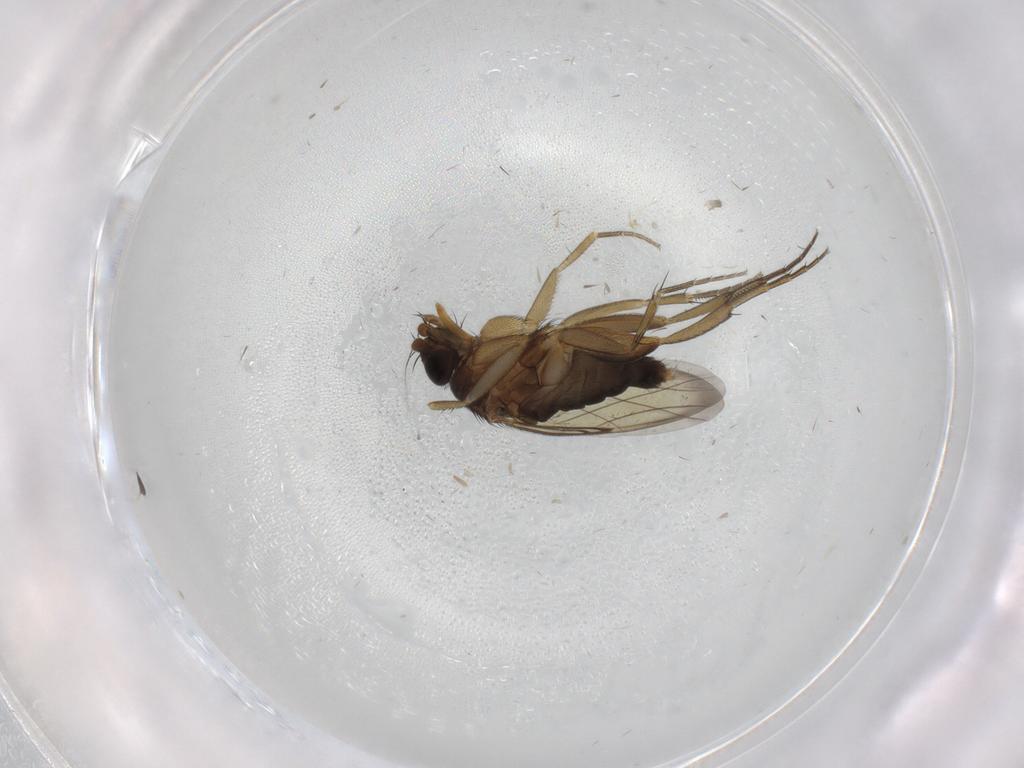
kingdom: Animalia
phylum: Arthropoda
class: Insecta
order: Diptera
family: Phoridae
